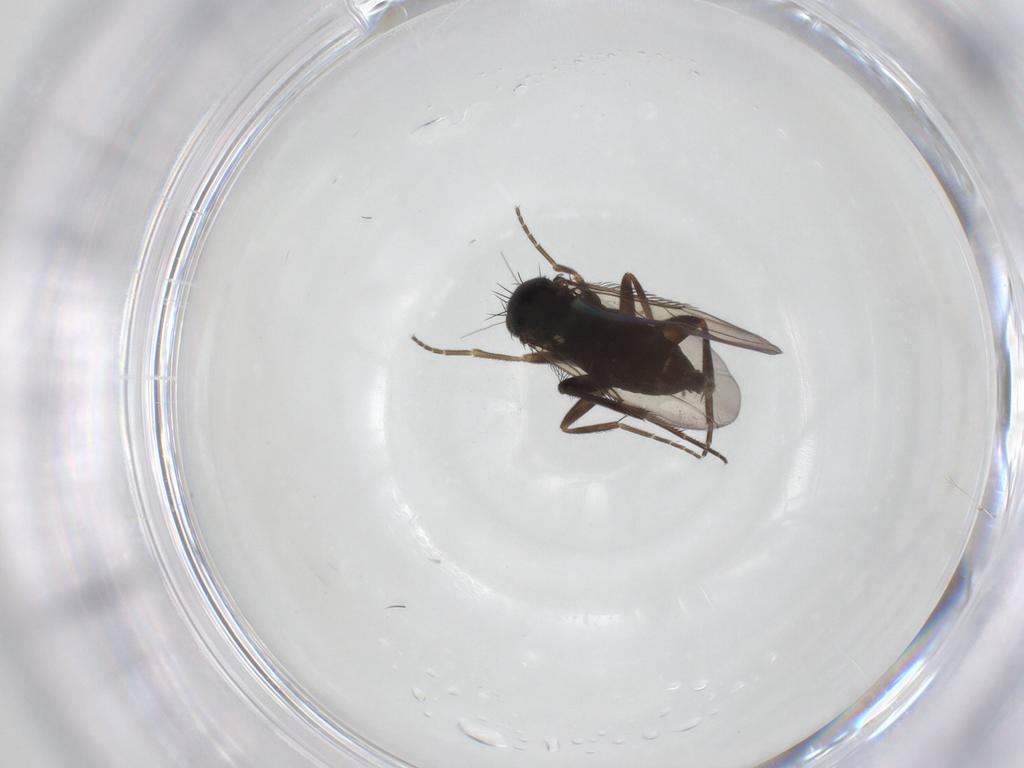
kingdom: Animalia
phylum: Arthropoda
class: Insecta
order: Diptera
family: Phoridae
